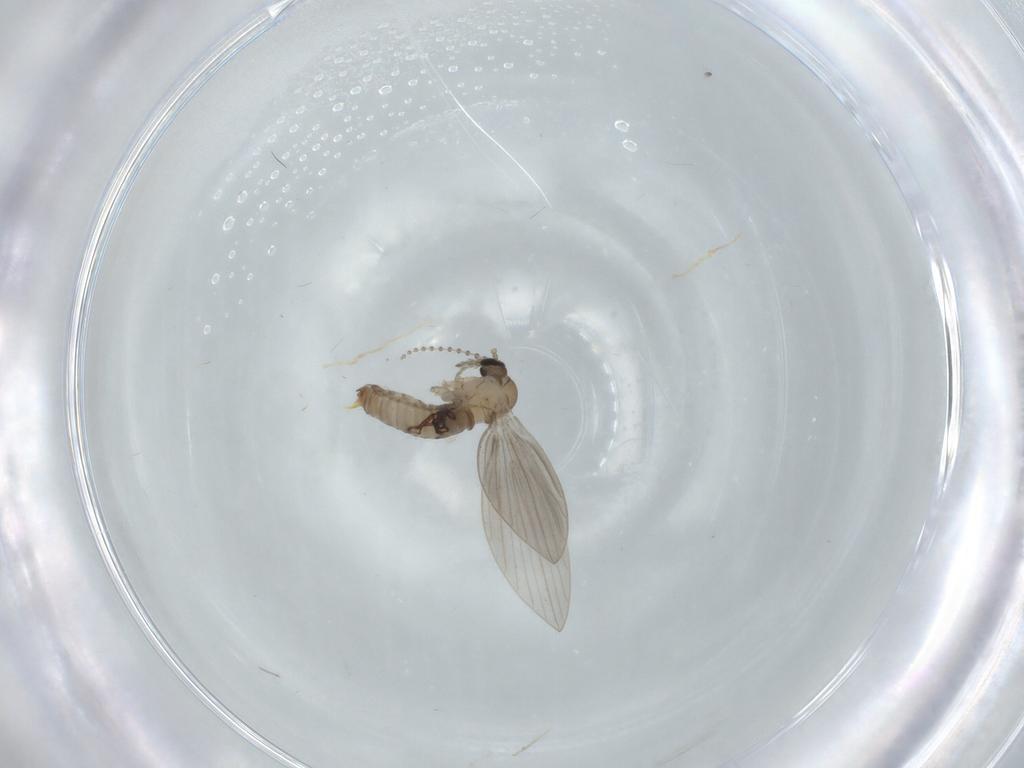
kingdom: Animalia
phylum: Arthropoda
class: Insecta
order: Diptera
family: Psychodidae
